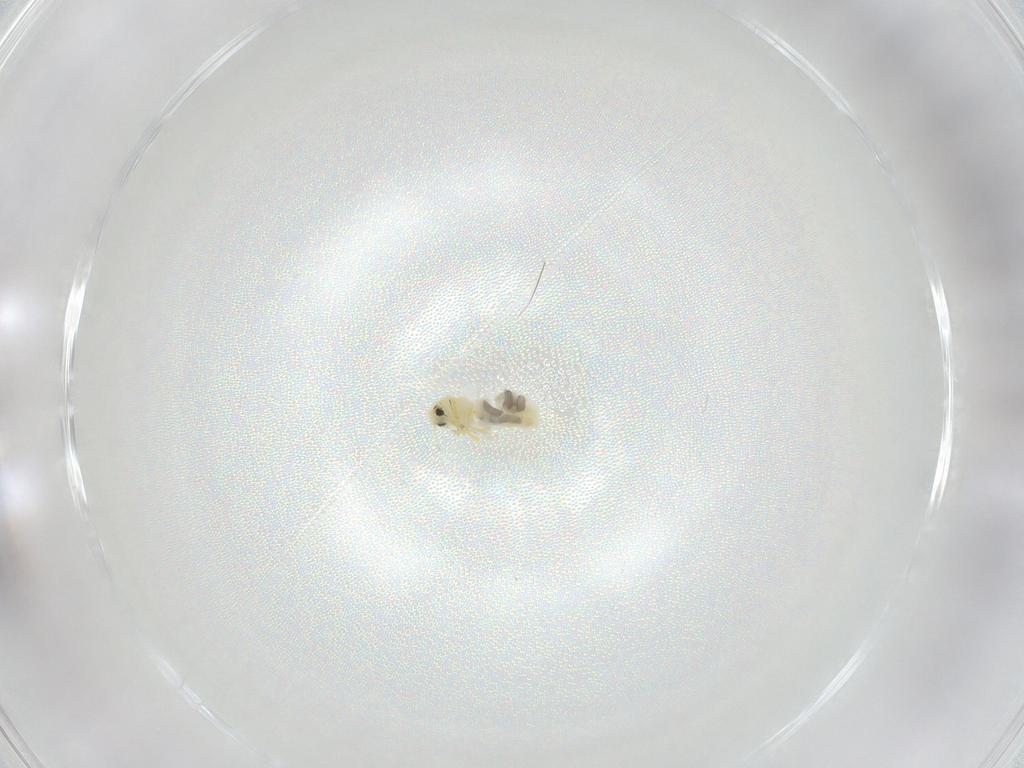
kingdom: Animalia
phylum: Arthropoda
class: Insecta
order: Hemiptera
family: Aleyrodidae
